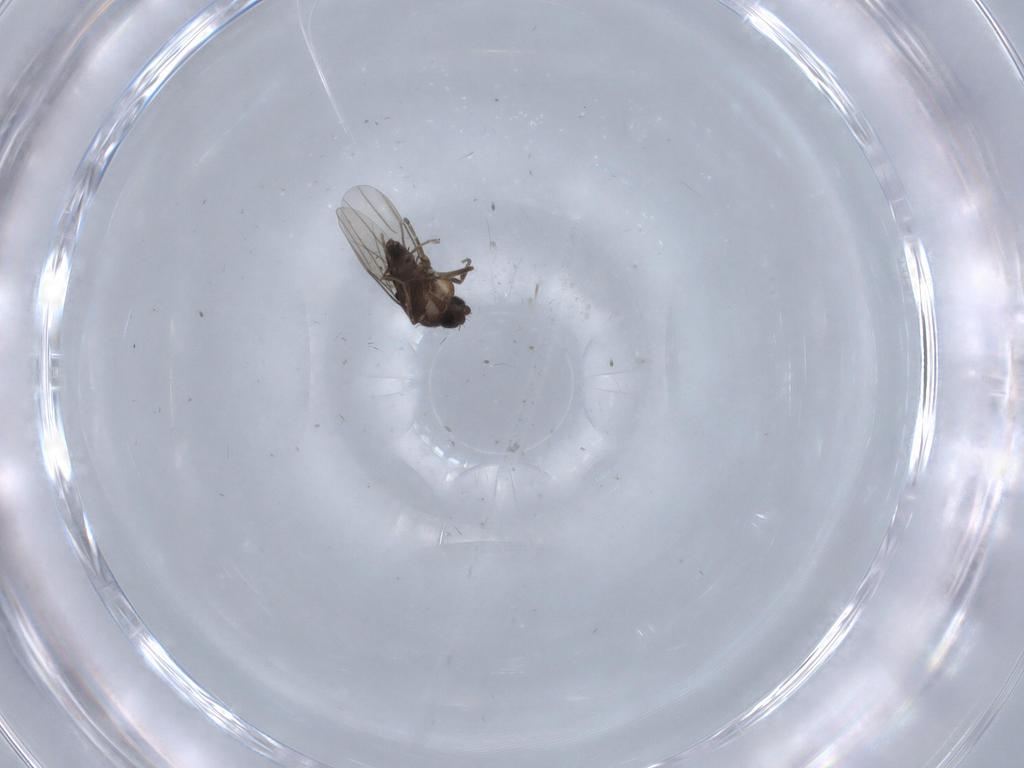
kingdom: Animalia
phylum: Arthropoda
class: Insecta
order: Diptera
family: Phoridae
